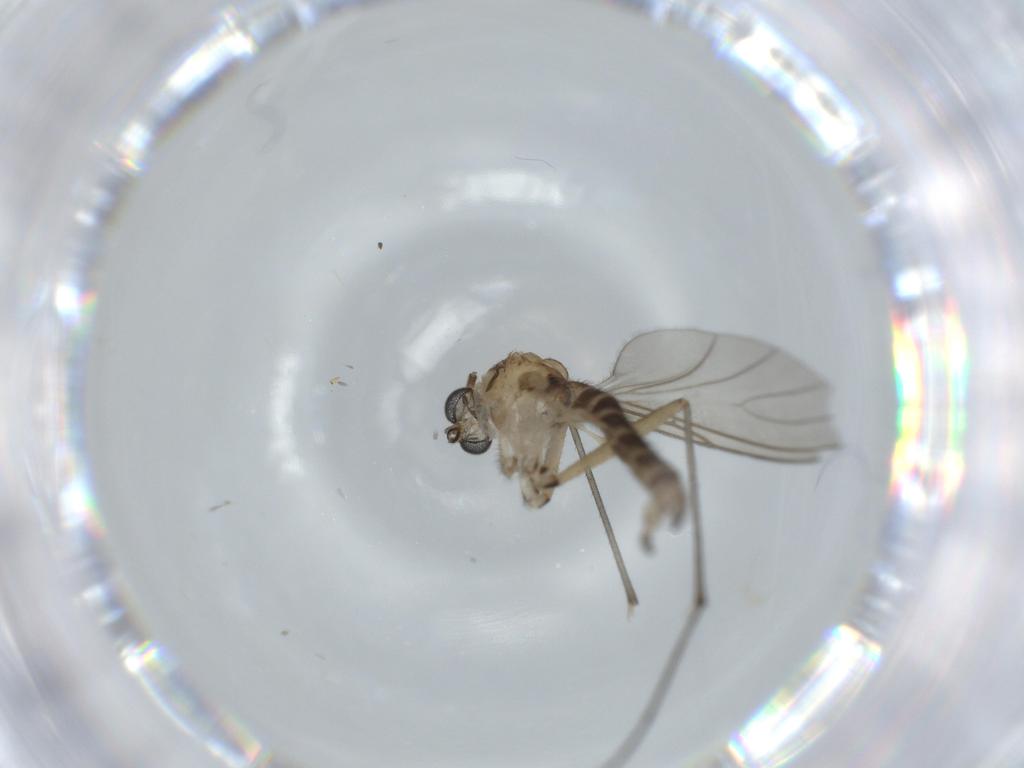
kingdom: Animalia
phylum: Arthropoda
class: Insecta
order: Diptera
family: Sciaridae
